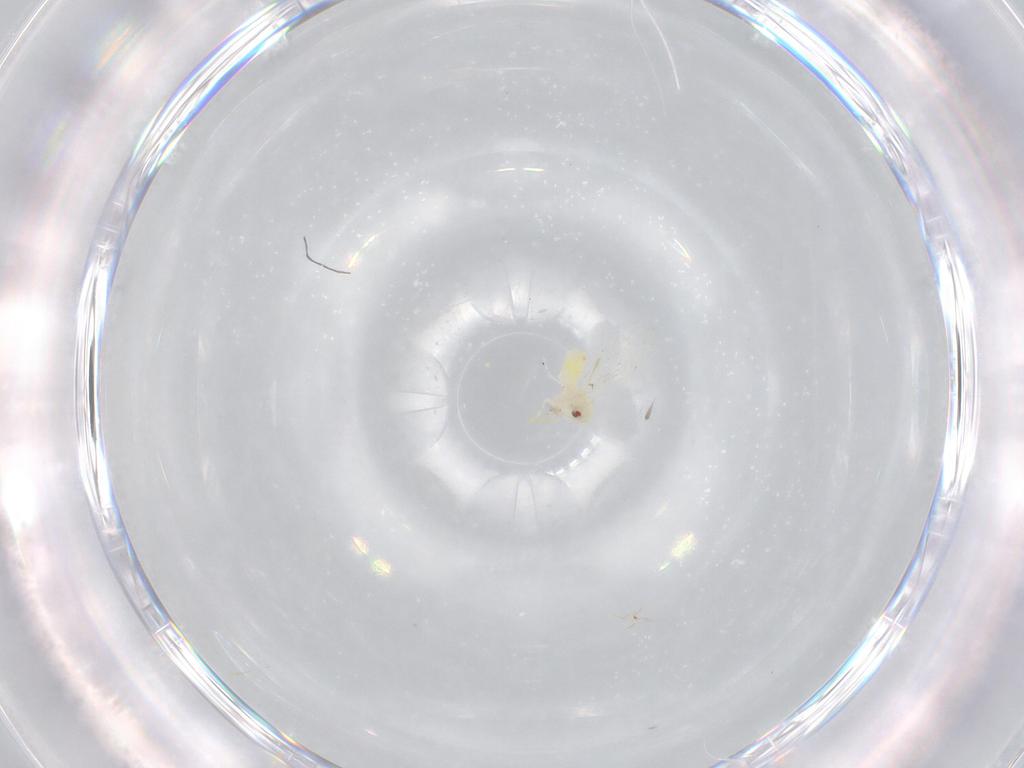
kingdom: Animalia
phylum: Arthropoda
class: Insecta
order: Hemiptera
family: Aleyrodidae
